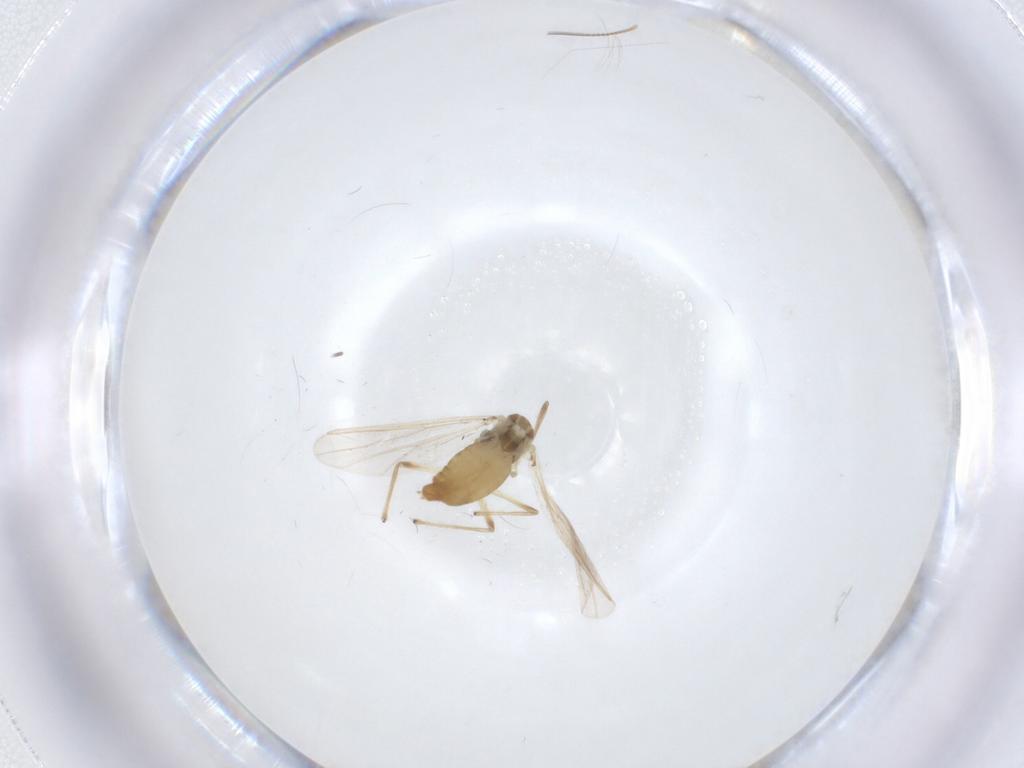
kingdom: Animalia
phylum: Arthropoda
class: Insecta
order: Diptera
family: Chironomidae
